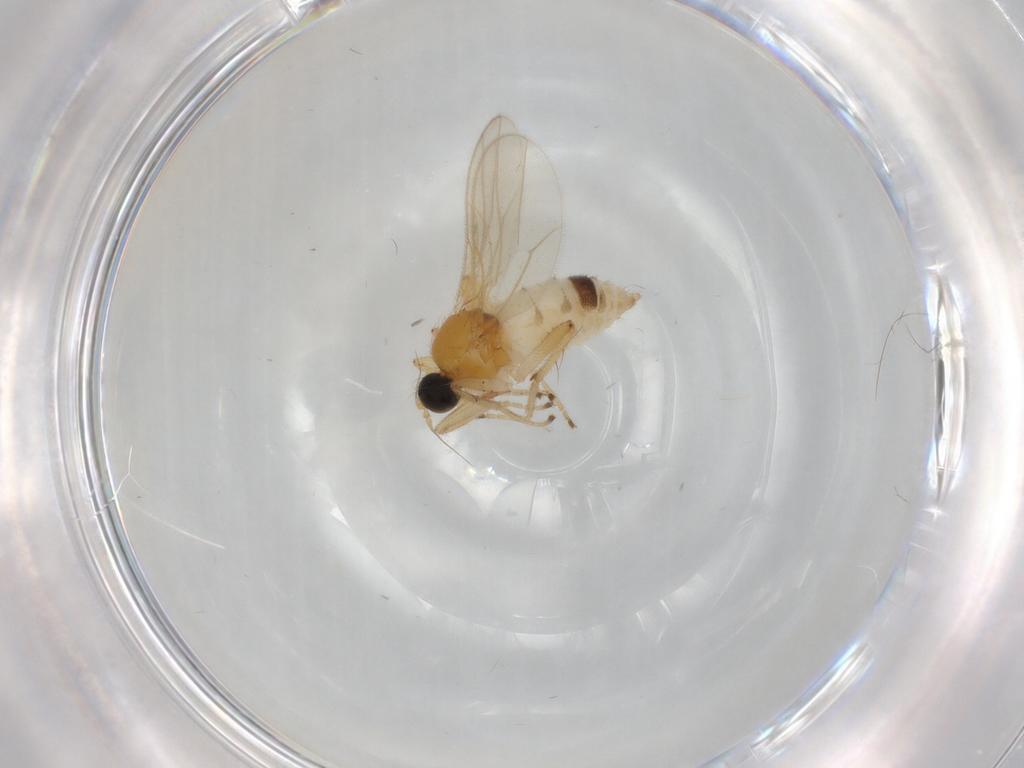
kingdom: Animalia
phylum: Arthropoda
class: Insecta
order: Diptera
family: Hybotidae
